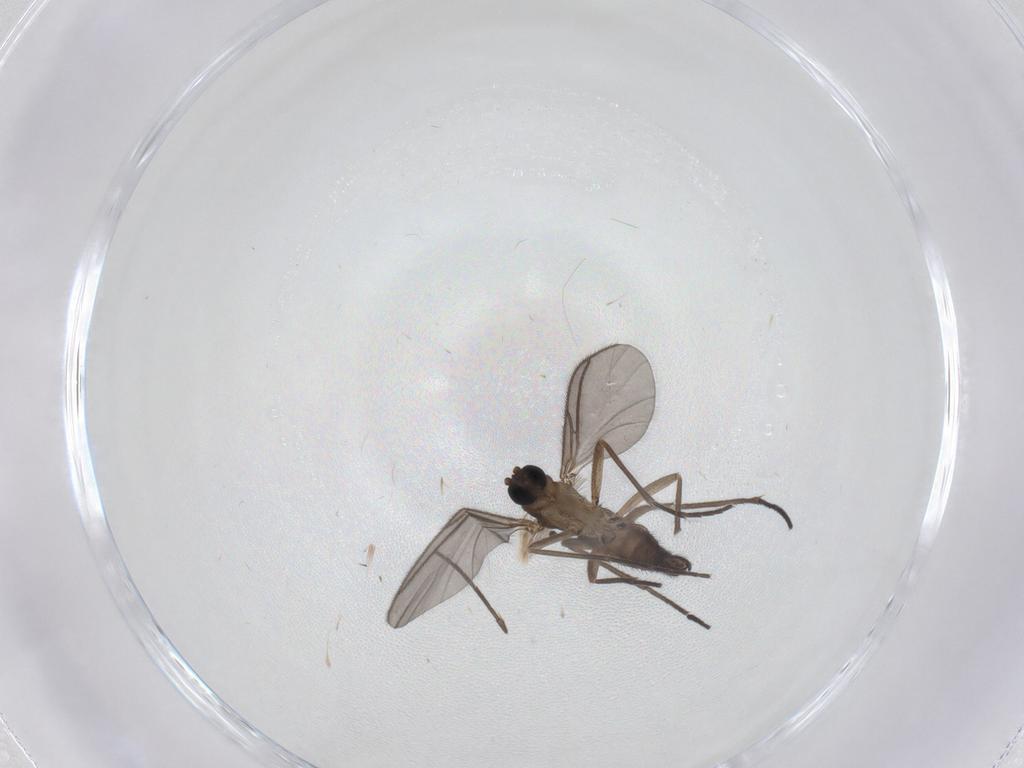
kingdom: Animalia
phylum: Arthropoda
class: Insecta
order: Diptera
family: Sciaridae
